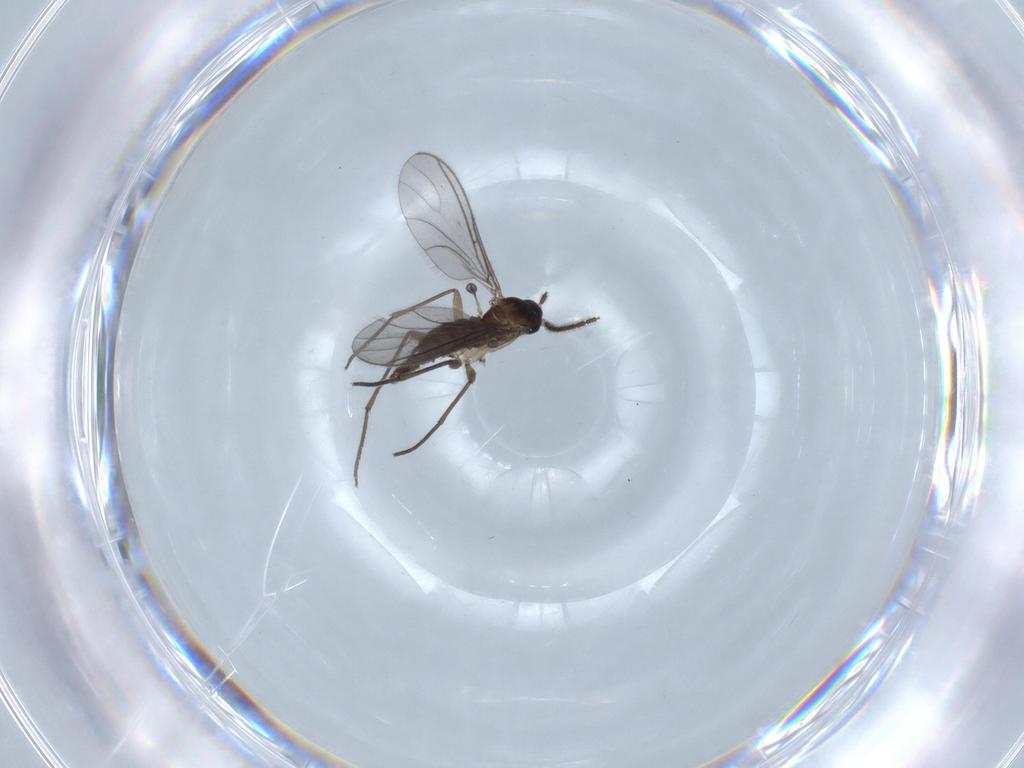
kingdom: Animalia
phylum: Arthropoda
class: Insecta
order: Diptera
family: Sciaridae
